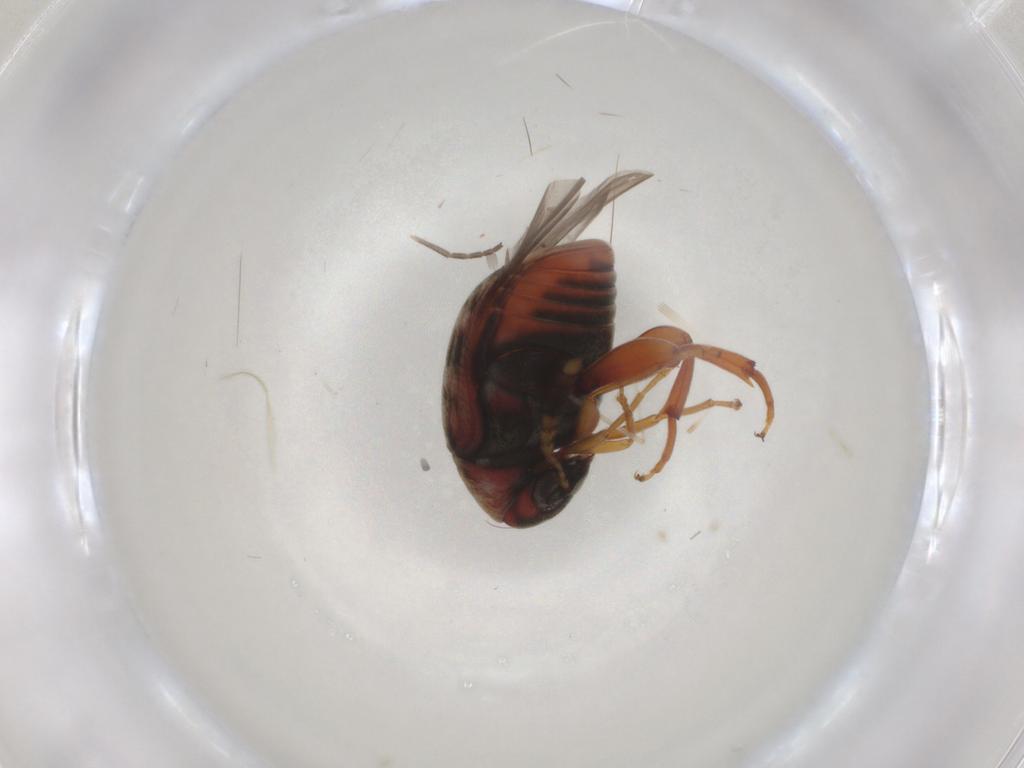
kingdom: Animalia
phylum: Arthropoda
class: Insecta
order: Coleoptera
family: Chrysomelidae
